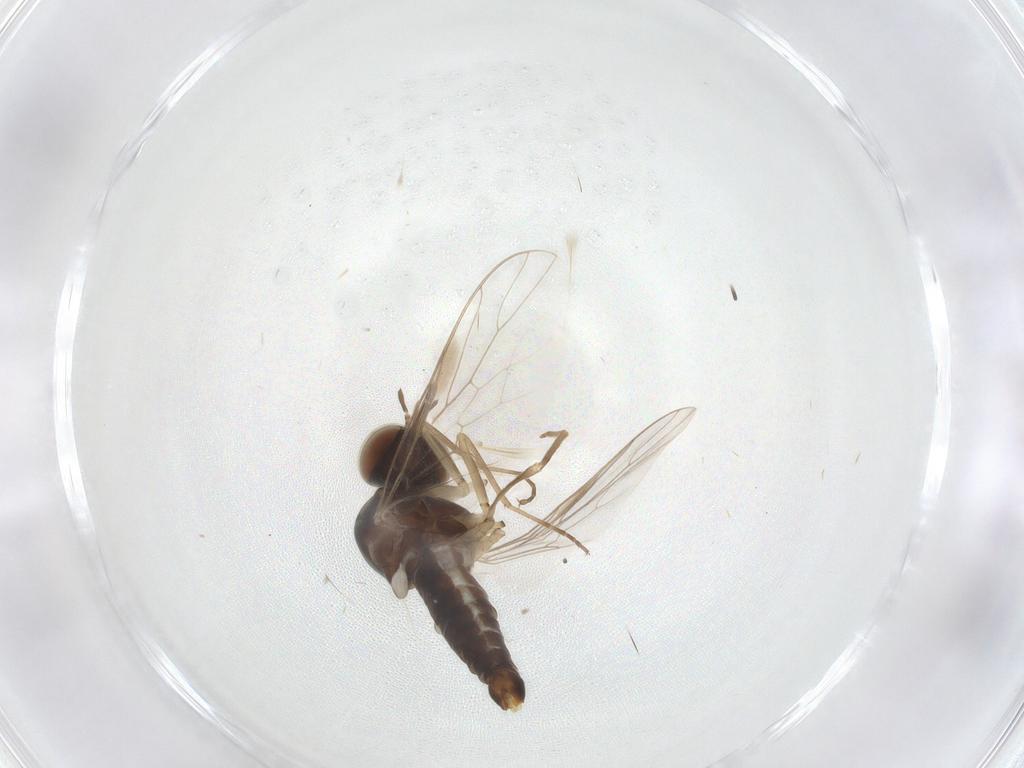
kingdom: Animalia
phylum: Arthropoda
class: Insecta
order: Diptera
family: Scenopinidae
